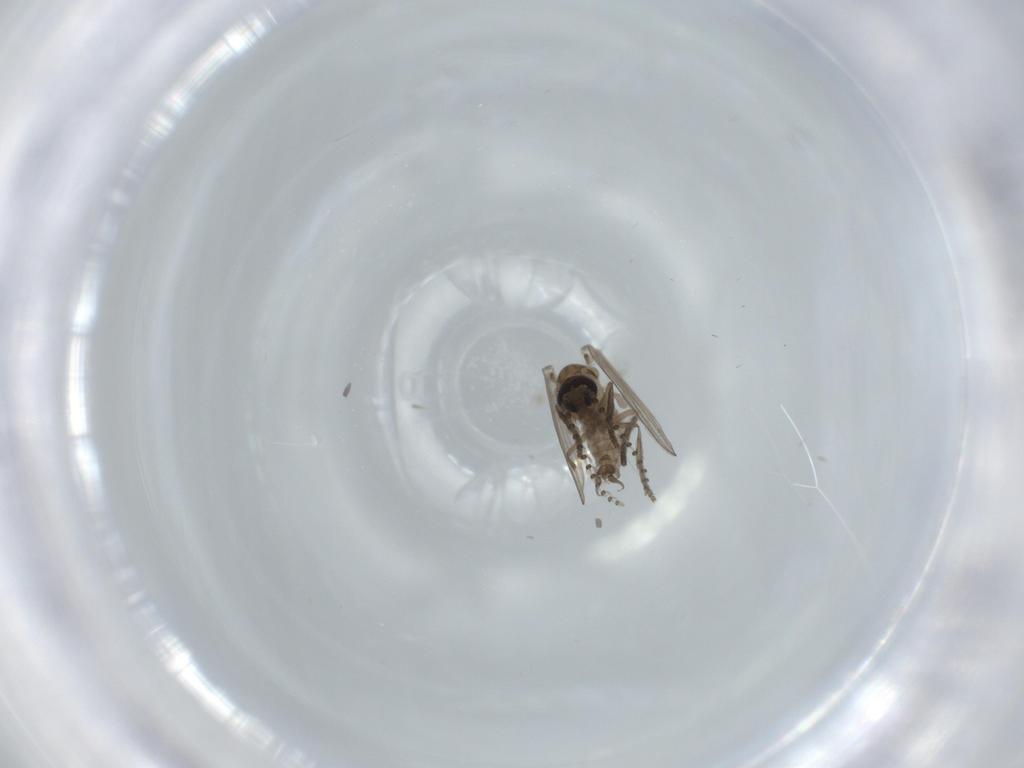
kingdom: Animalia
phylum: Arthropoda
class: Insecta
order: Diptera
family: Psychodidae
